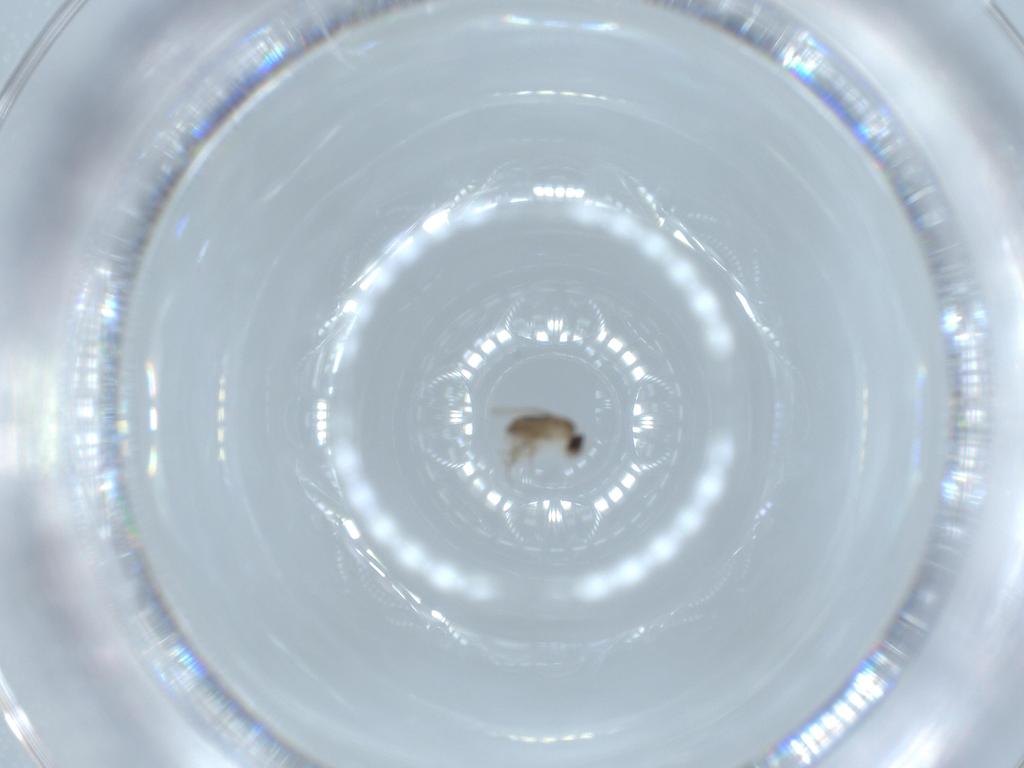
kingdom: Animalia
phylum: Arthropoda
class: Insecta
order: Diptera
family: Phoridae
